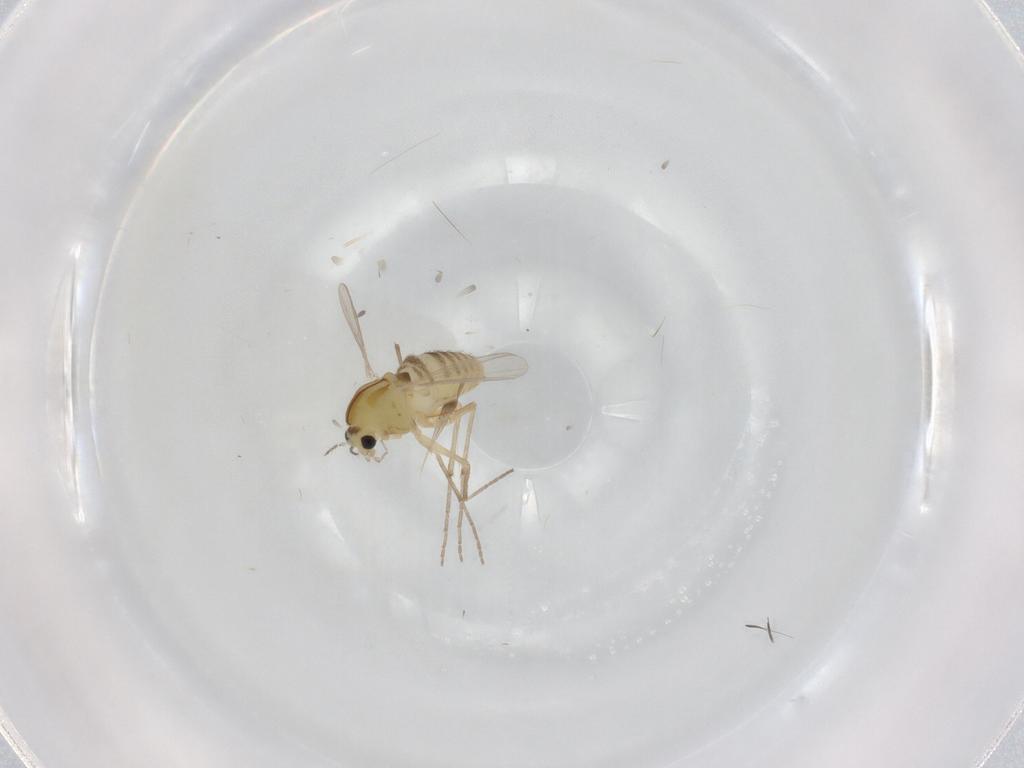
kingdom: Animalia
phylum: Arthropoda
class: Insecta
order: Diptera
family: Chironomidae
